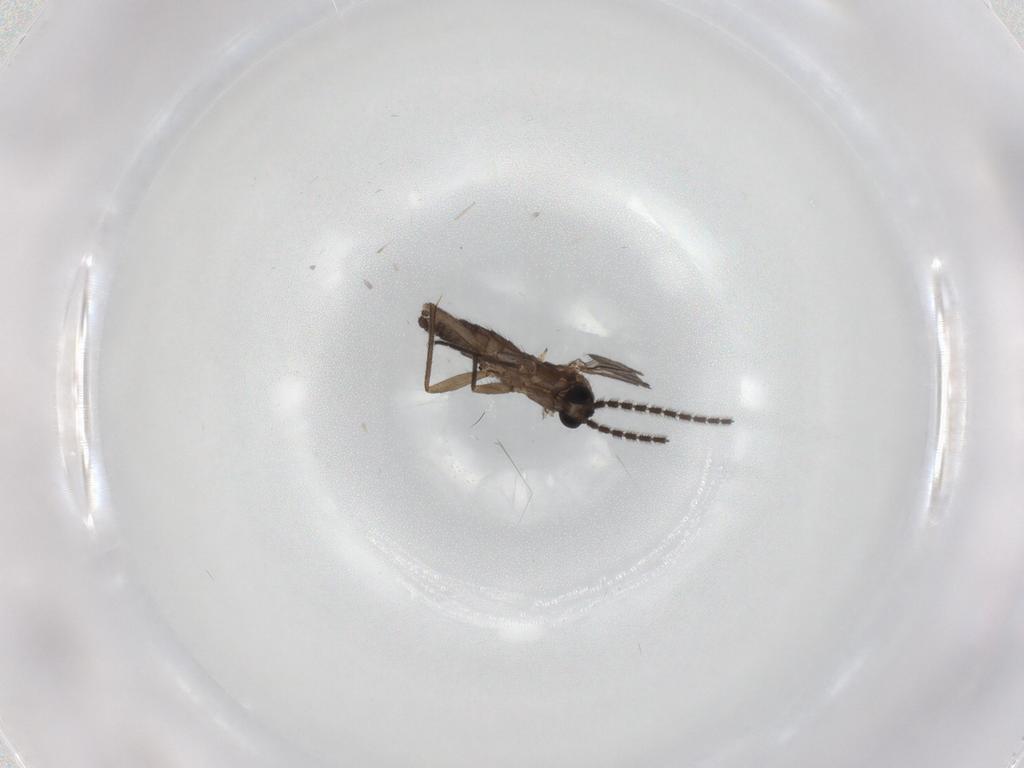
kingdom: Animalia
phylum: Arthropoda
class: Insecta
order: Diptera
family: Sciaridae
